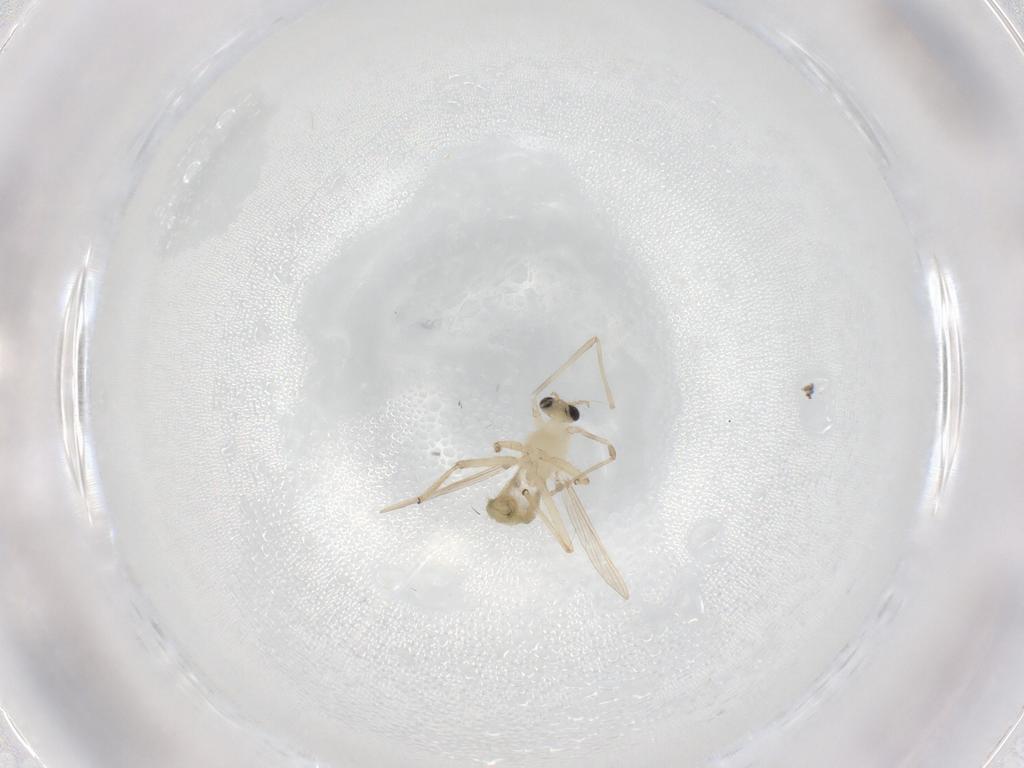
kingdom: Animalia
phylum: Arthropoda
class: Insecta
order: Diptera
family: Chironomidae
